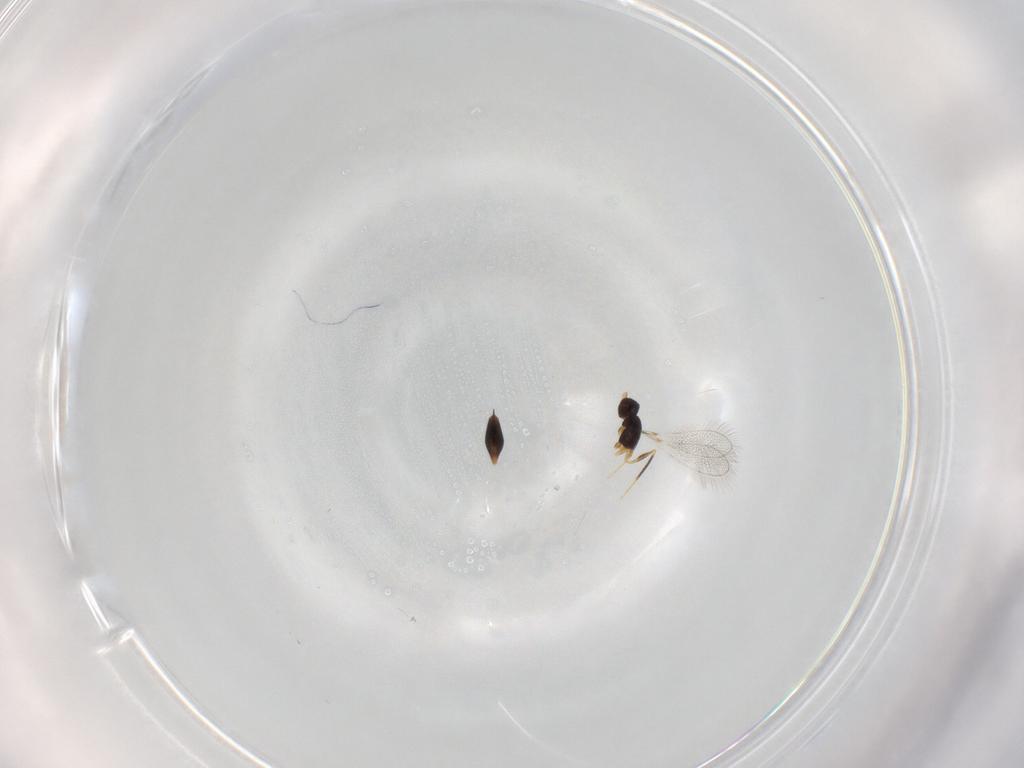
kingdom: Animalia
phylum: Arthropoda
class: Insecta
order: Hymenoptera
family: Mymaridae
